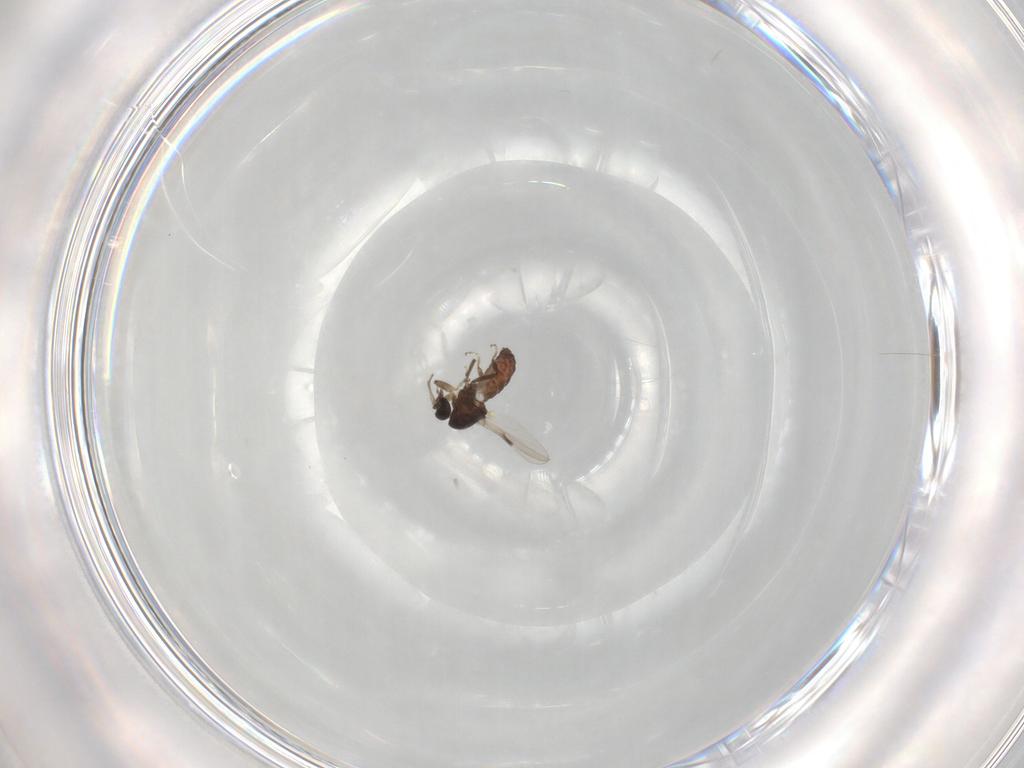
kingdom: Animalia
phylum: Arthropoda
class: Insecta
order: Diptera
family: Ceratopogonidae
